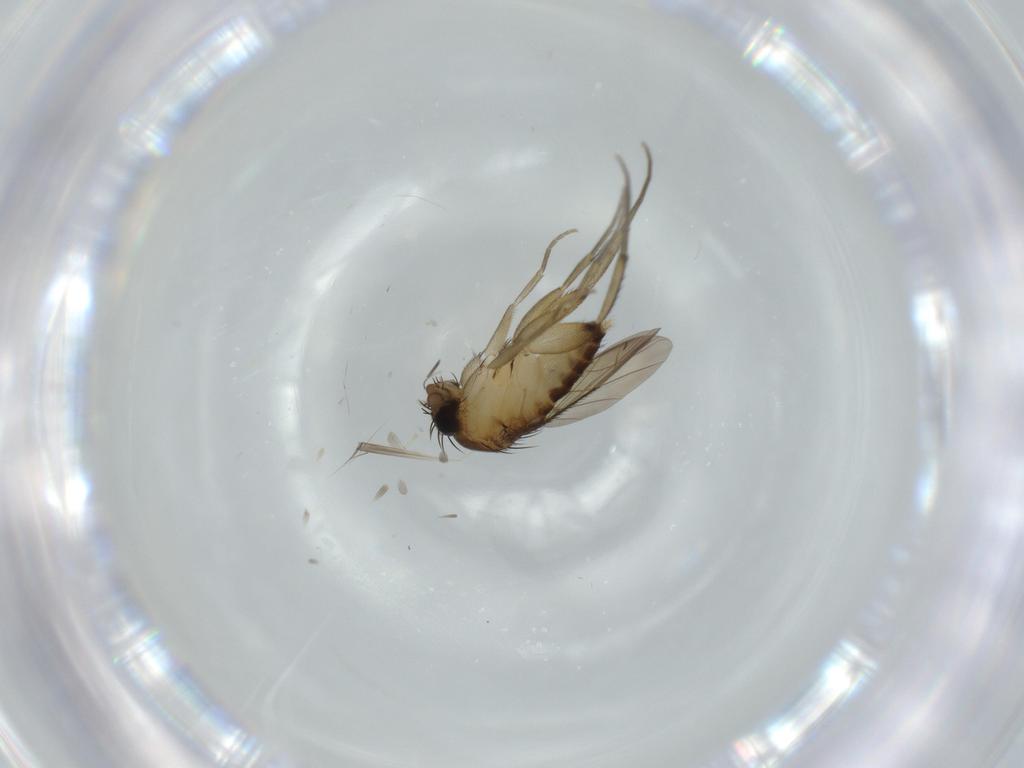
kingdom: Animalia
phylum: Arthropoda
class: Insecta
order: Diptera
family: Phoridae
